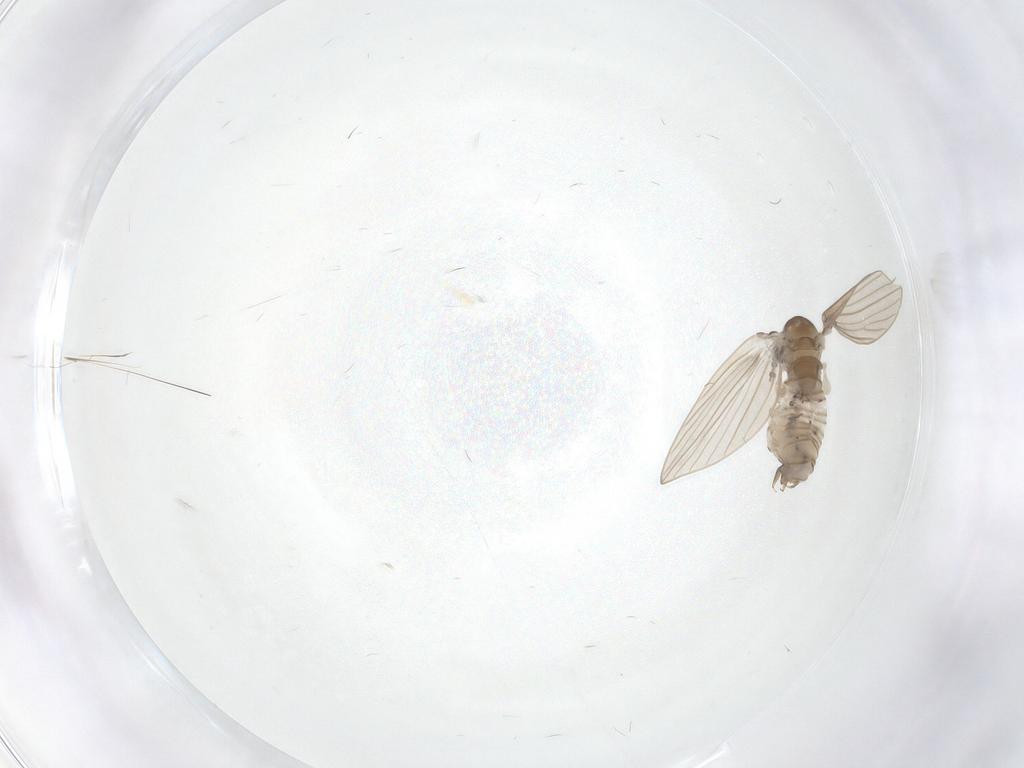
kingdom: Animalia
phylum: Arthropoda
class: Insecta
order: Diptera
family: Psychodidae
